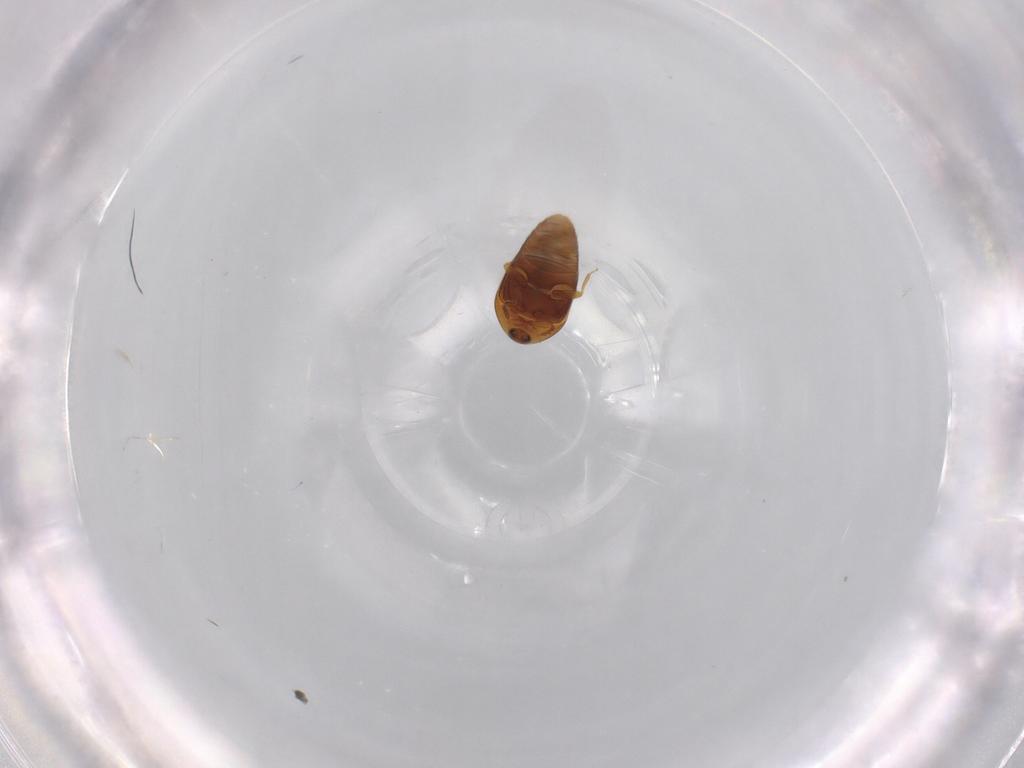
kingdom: Animalia
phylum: Arthropoda
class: Insecta
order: Coleoptera
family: Corylophidae
